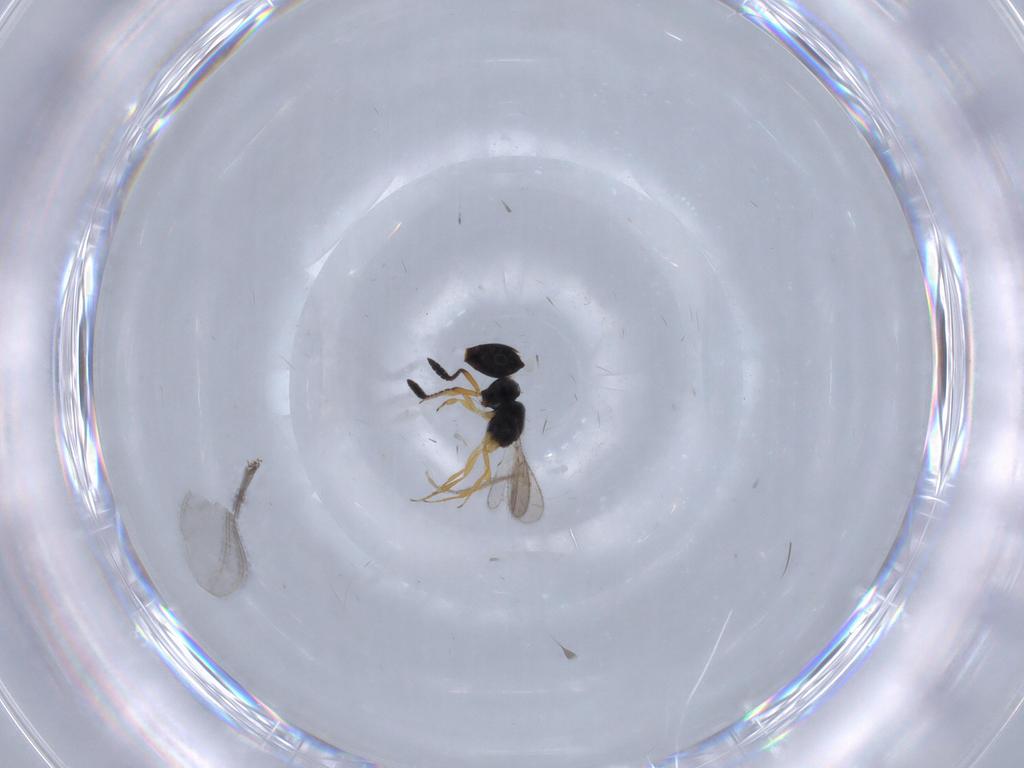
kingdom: Animalia
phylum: Arthropoda
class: Insecta
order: Hymenoptera
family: Scelionidae
